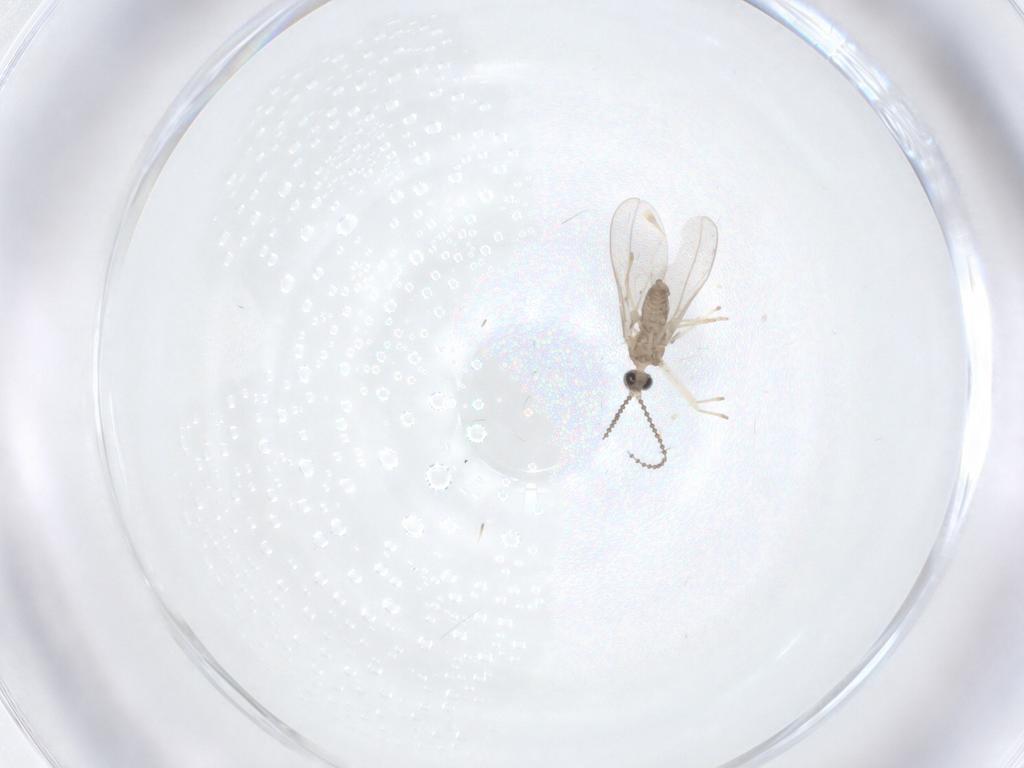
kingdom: Animalia
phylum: Arthropoda
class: Insecta
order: Diptera
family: Cecidomyiidae
